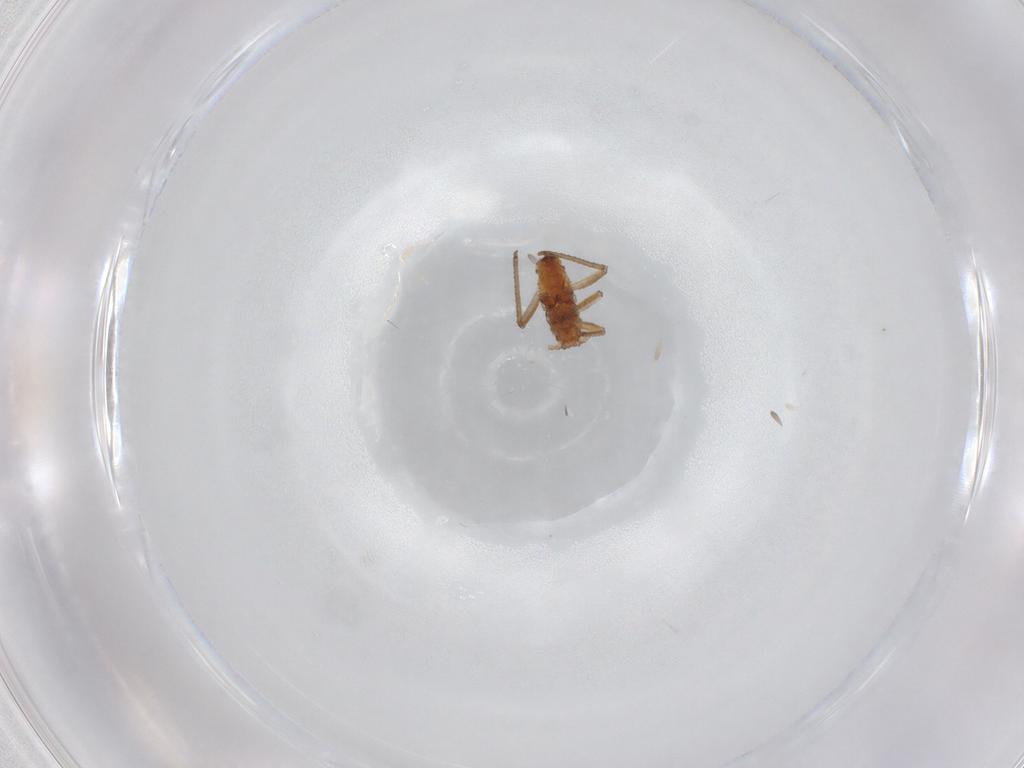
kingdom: Animalia
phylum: Arthropoda
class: Insecta
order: Hemiptera
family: Aphididae
